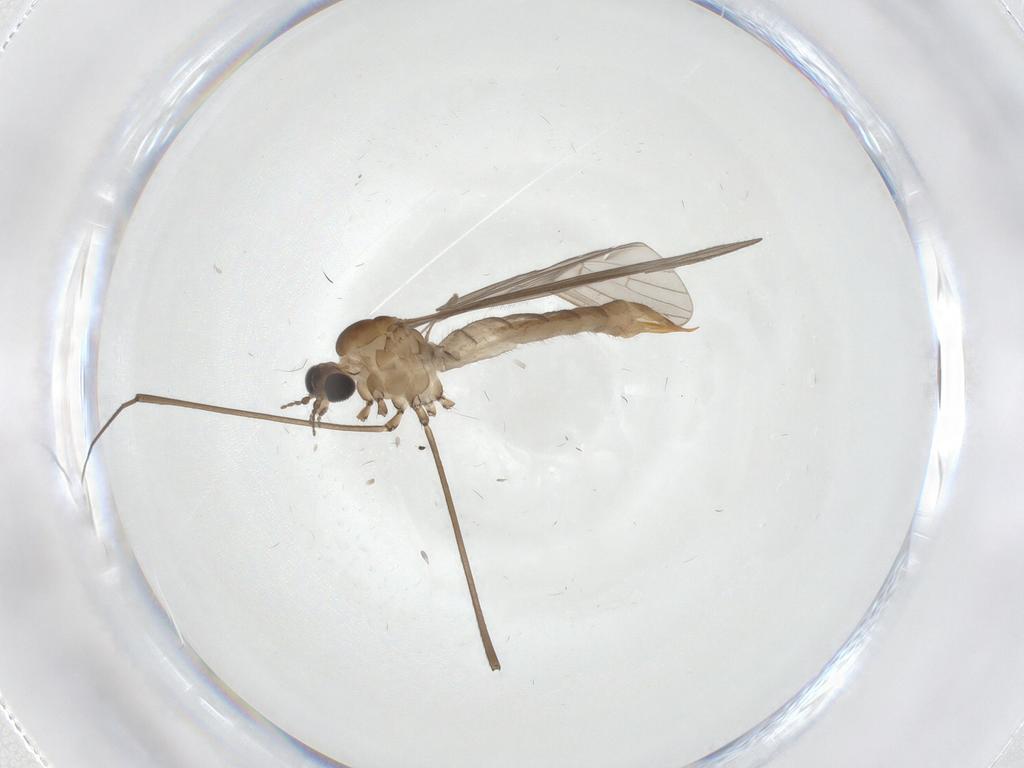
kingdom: Animalia
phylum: Arthropoda
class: Insecta
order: Diptera
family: Limoniidae
